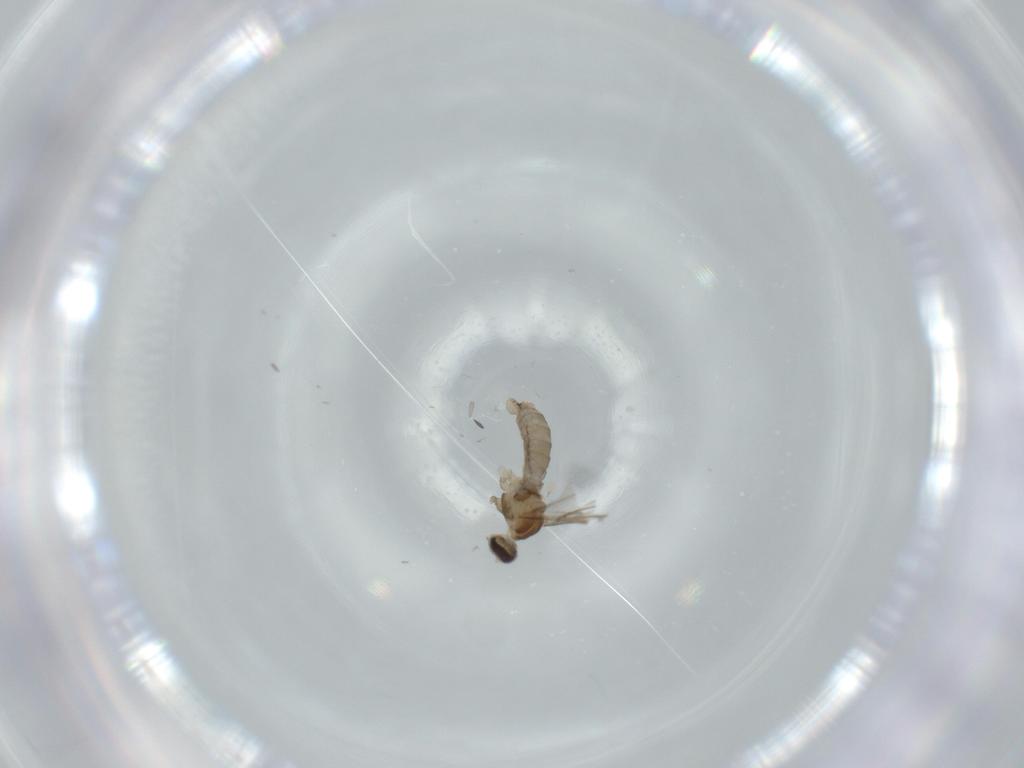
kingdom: Animalia
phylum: Arthropoda
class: Insecta
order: Diptera
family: Cecidomyiidae
